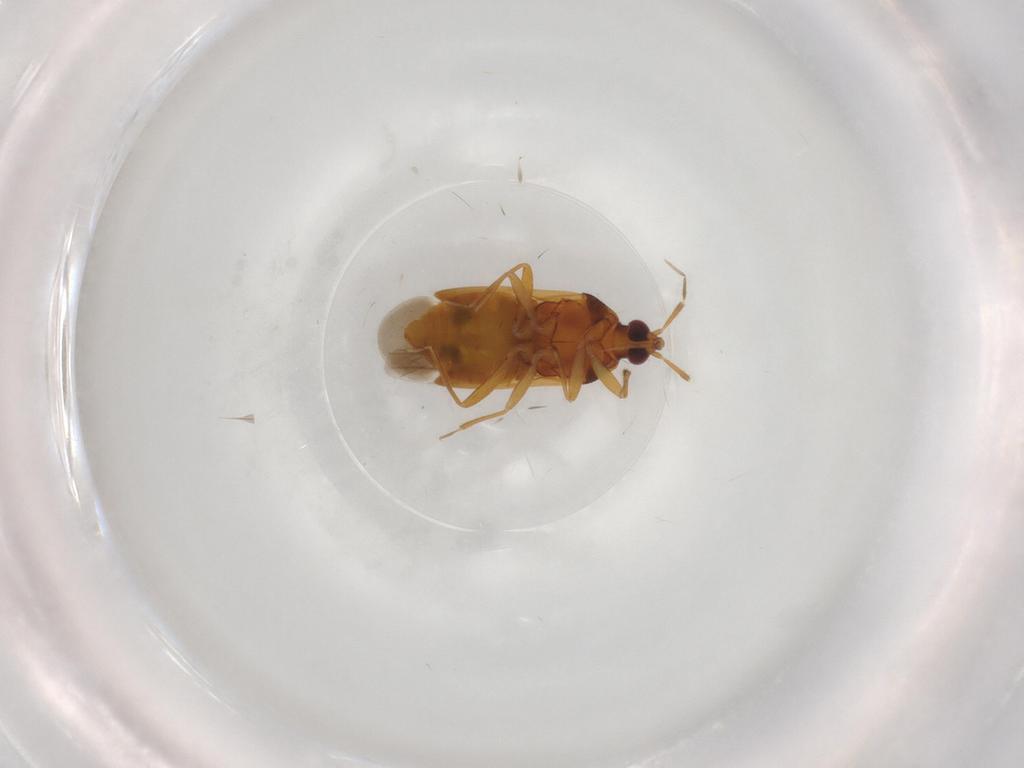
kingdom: Animalia
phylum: Arthropoda
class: Insecta
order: Hemiptera
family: Anthocoridae
